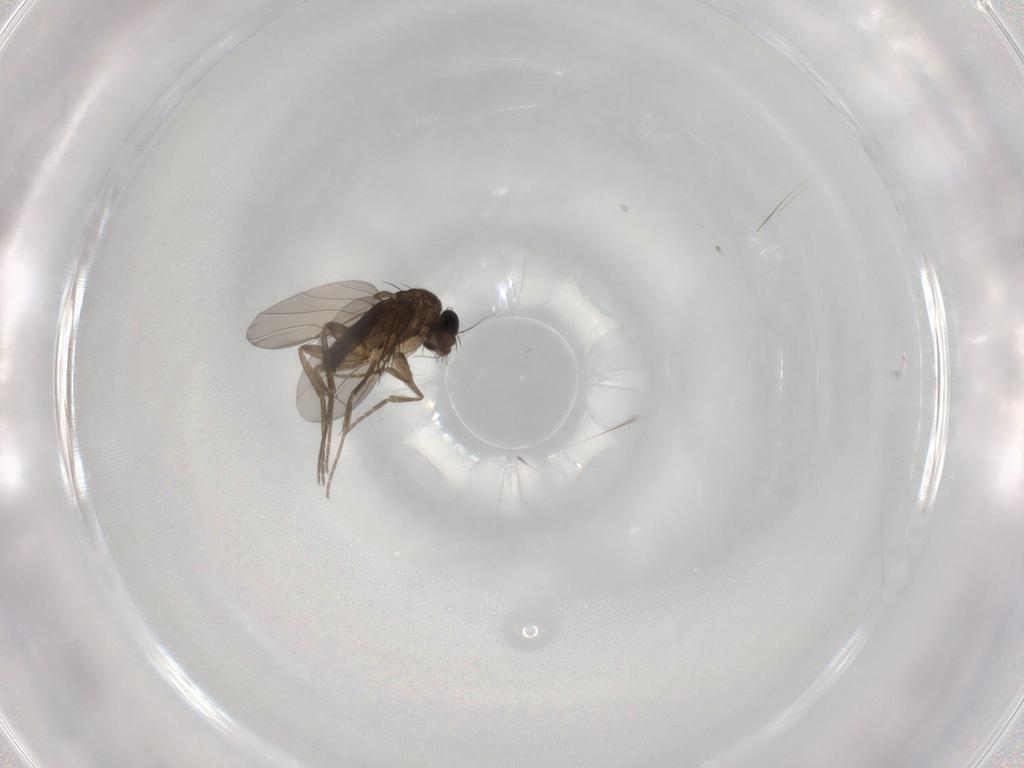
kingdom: Animalia
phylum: Arthropoda
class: Insecta
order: Diptera
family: Phoridae
